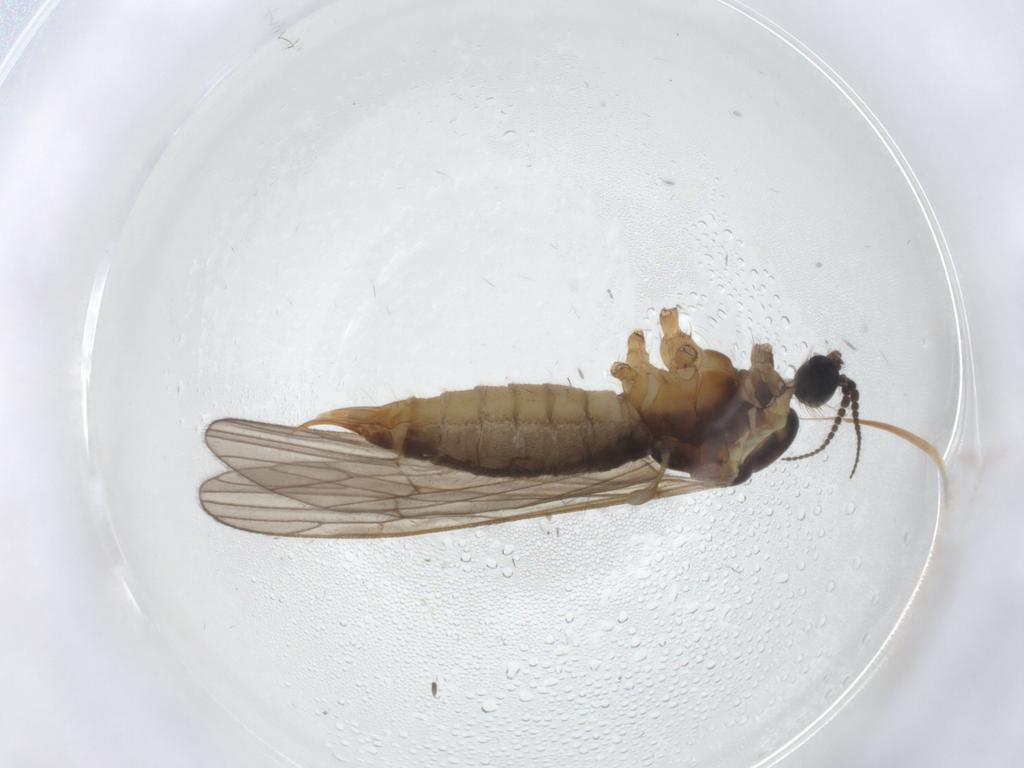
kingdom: Animalia
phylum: Arthropoda
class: Insecta
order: Diptera
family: Agromyzidae
